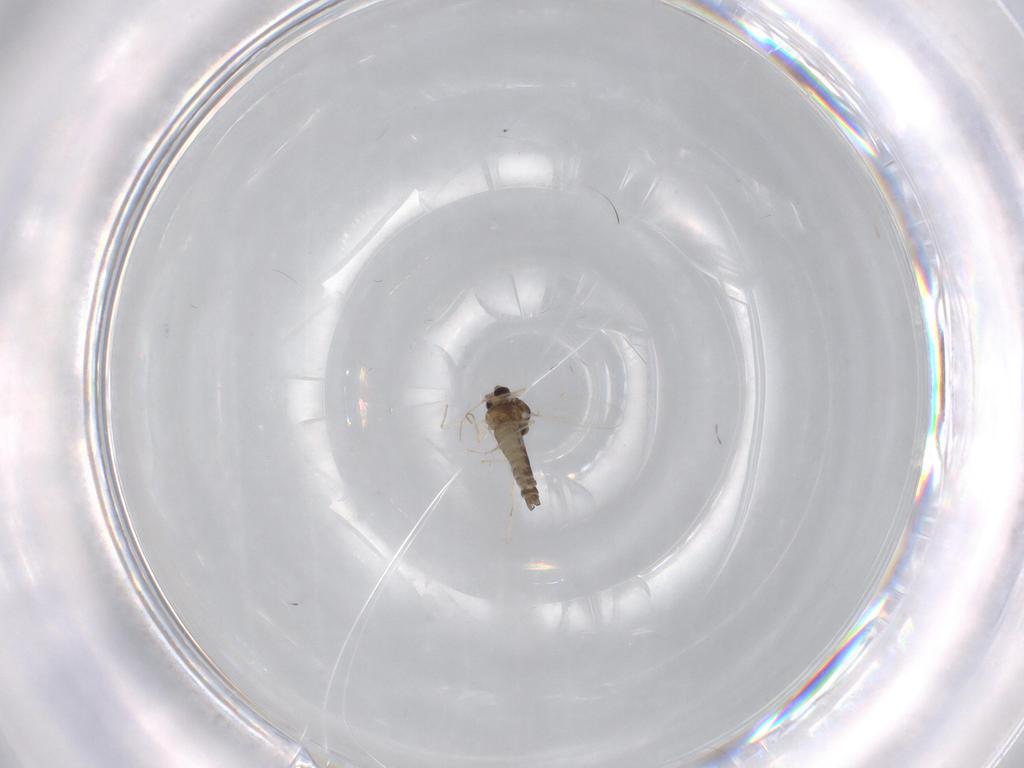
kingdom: Animalia
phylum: Arthropoda
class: Insecta
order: Diptera
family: Chironomidae
